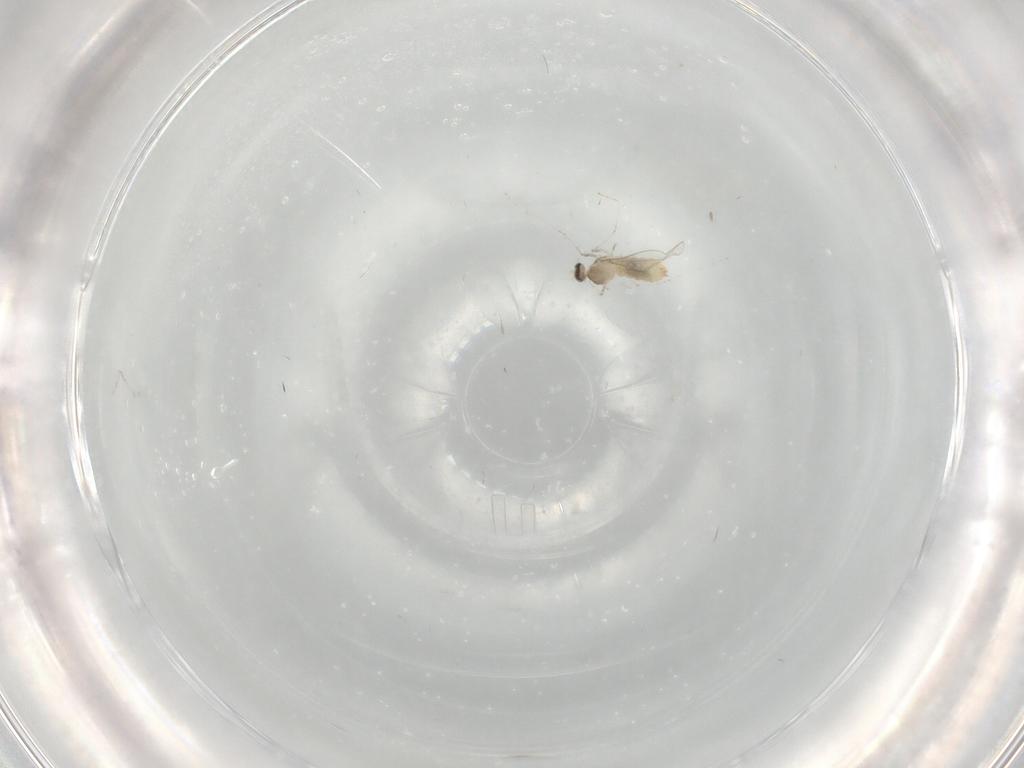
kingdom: Animalia
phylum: Arthropoda
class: Insecta
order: Diptera
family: Cecidomyiidae
